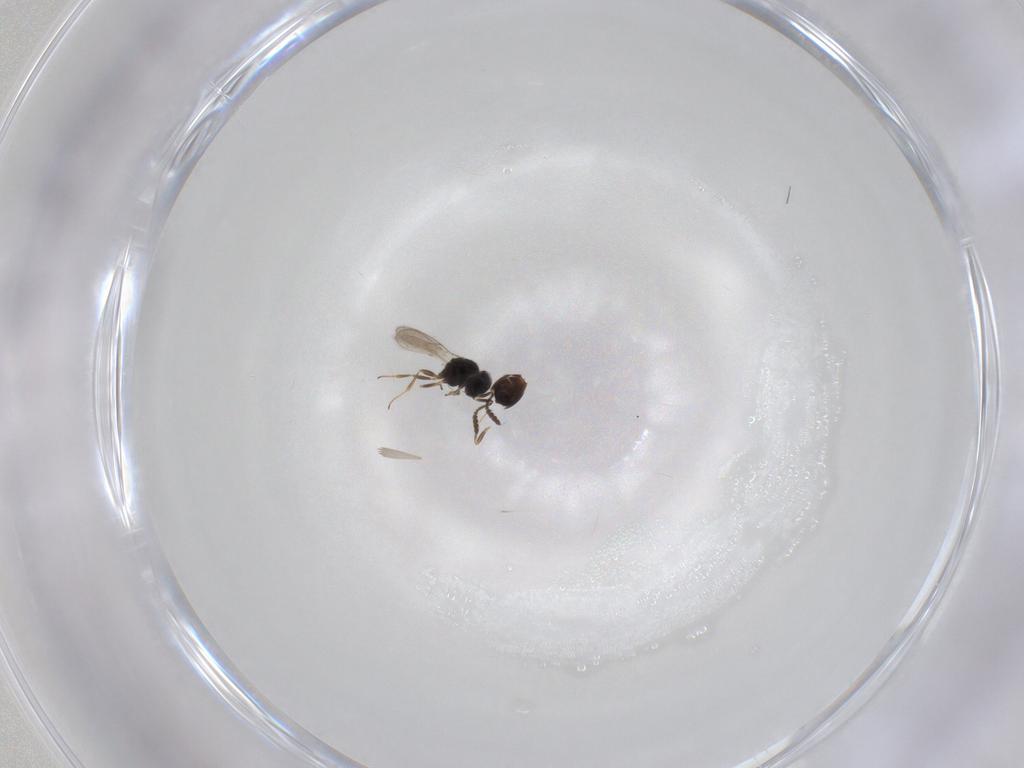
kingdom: Animalia
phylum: Arthropoda
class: Insecta
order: Hymenoptera
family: Scelionidae
